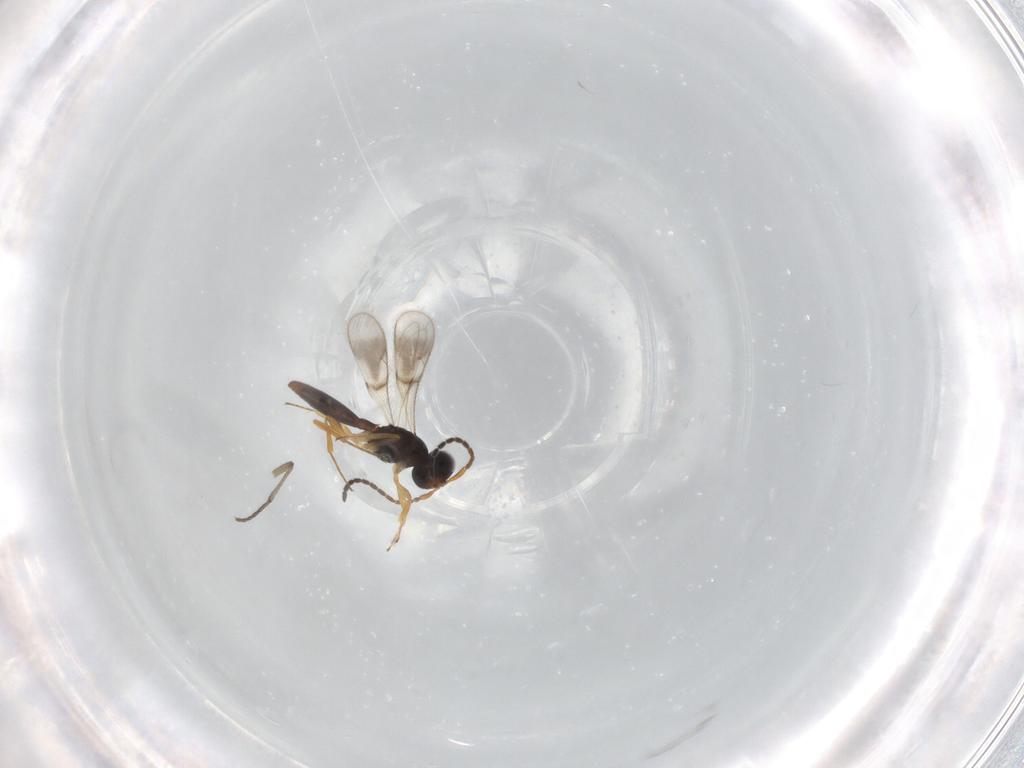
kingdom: Animalia
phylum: Arthropoda
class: Insecta
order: Hymenoptera
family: Scelionidae
